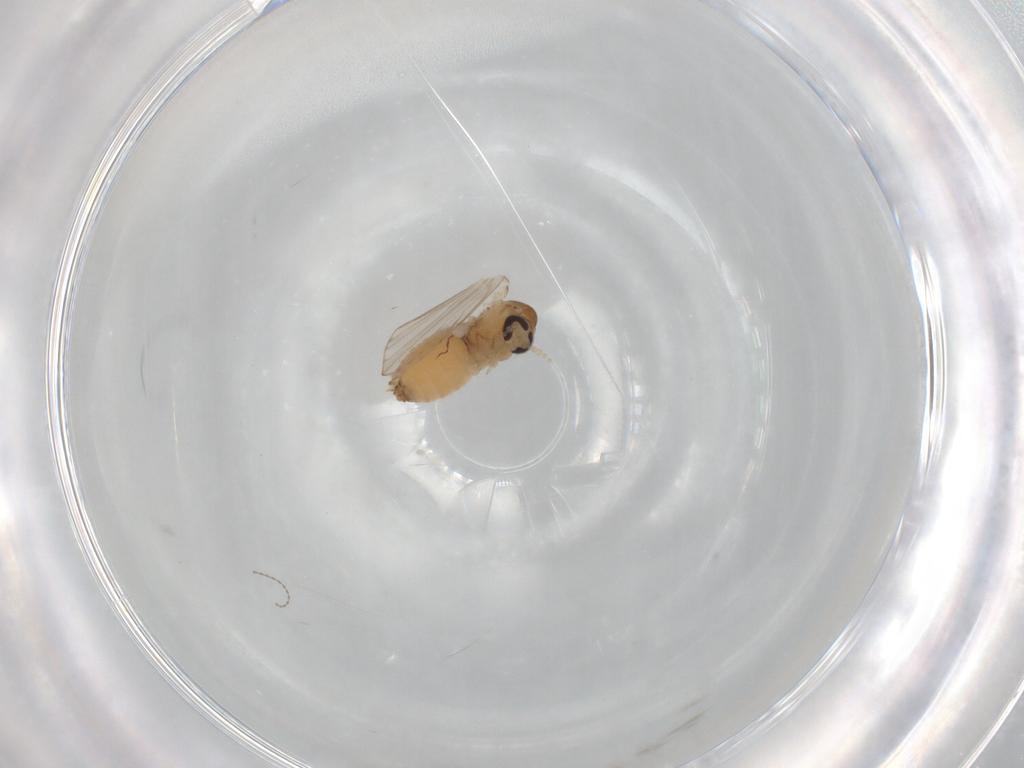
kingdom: Animalia
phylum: Arthropoda
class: Insecta
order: Diptera
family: Psychodidae
